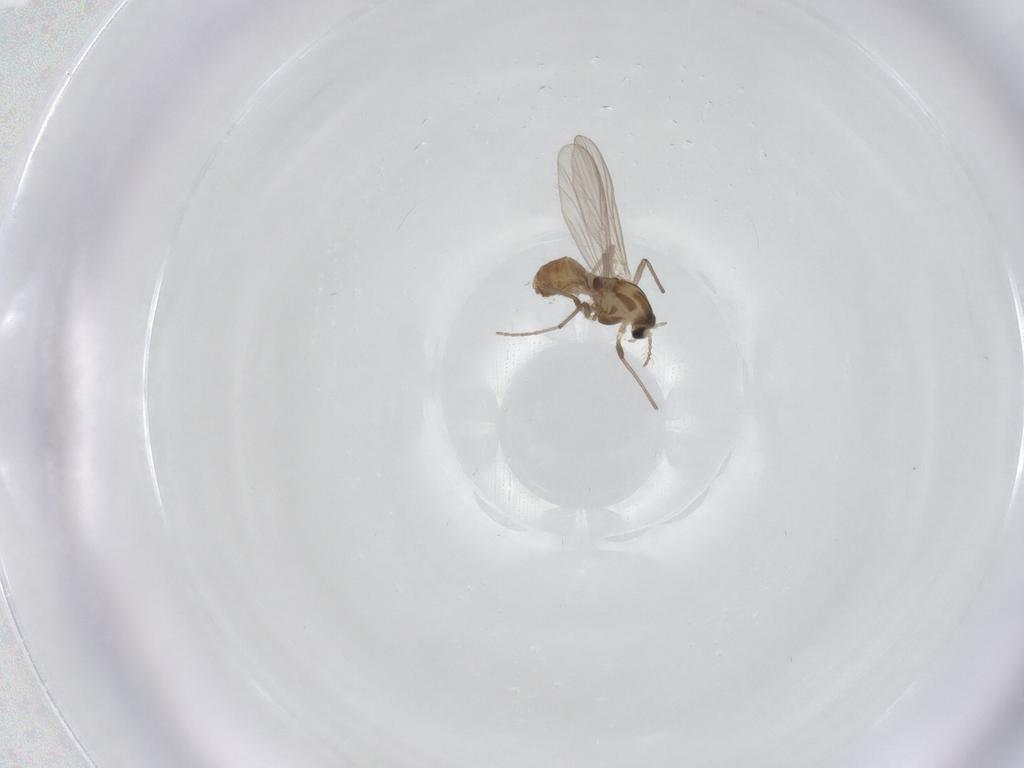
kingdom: Animalia
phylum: Arthropoda
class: Insecta
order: Diptera
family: Chironomidae
